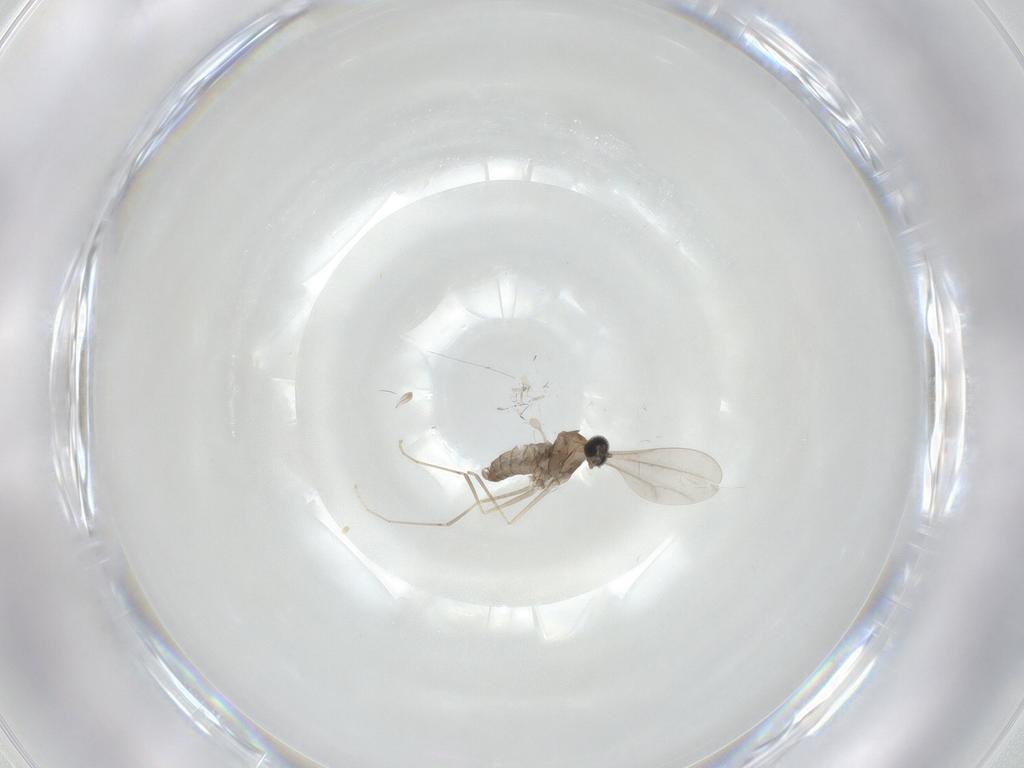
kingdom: Animalia
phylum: Arthropoda
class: Insecta
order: Diptera
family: Cecidomyiidae
